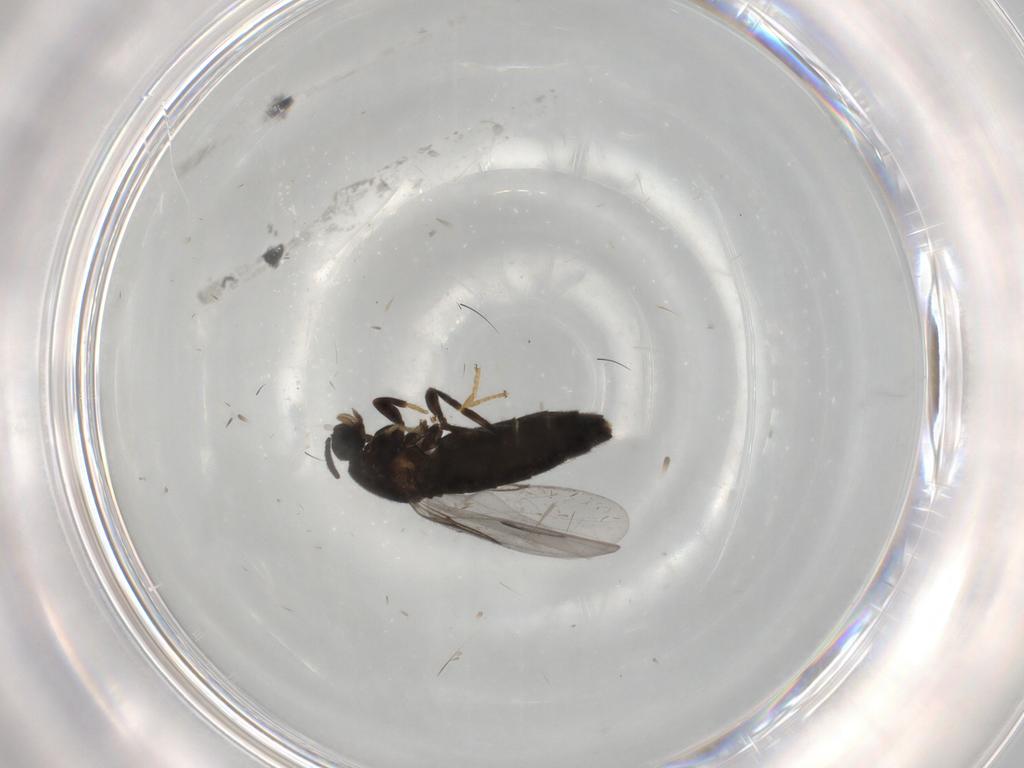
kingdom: Animalia
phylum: Arthropoda
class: Insecta
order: Diptera
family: Scatopsidae
